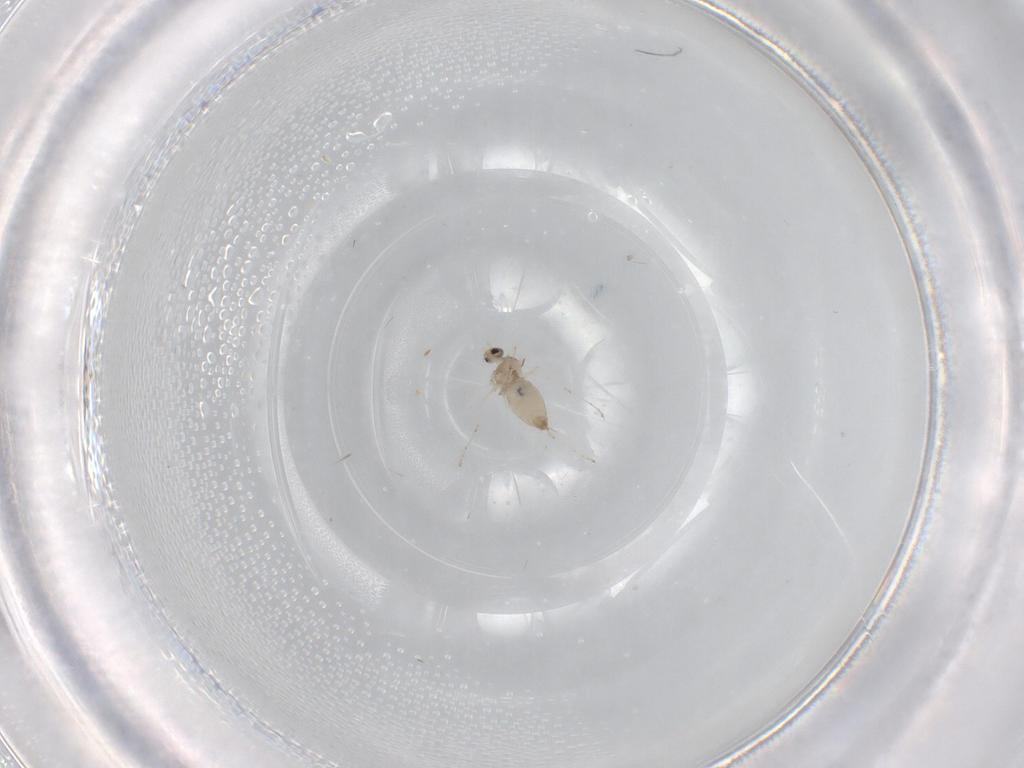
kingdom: Animalia
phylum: Arthropoda
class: Insecta
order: Diptera
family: Cecidomyiidae
